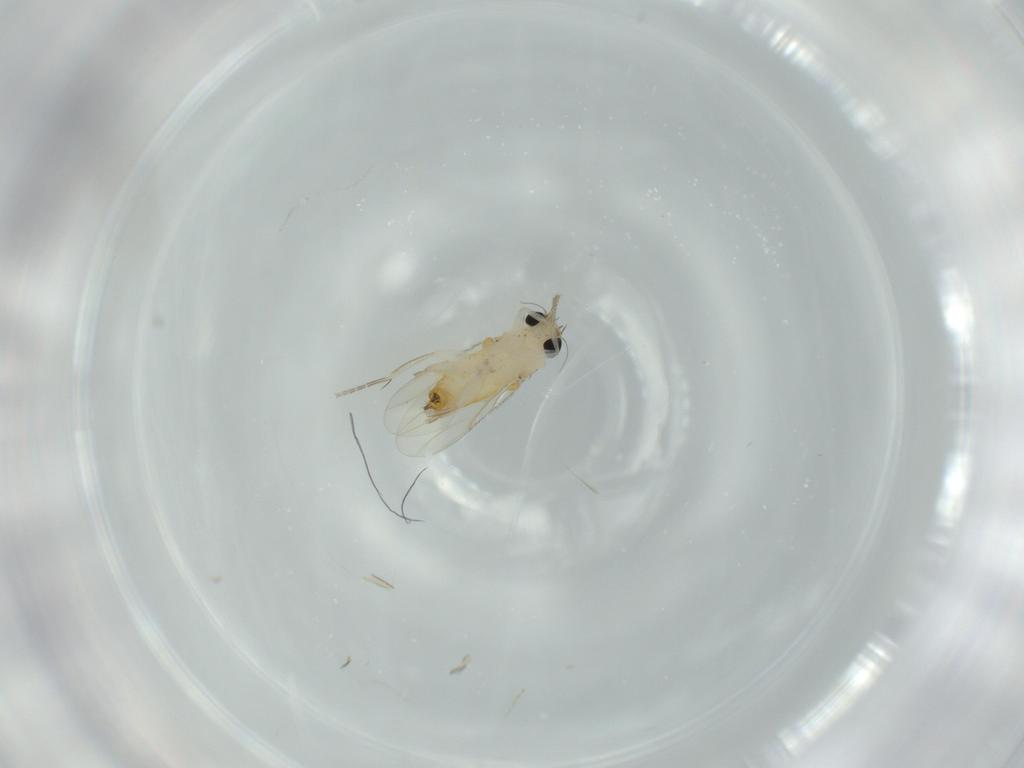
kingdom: Animalia
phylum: Arthropoda
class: Insecta
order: Diptera
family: Phoridae
